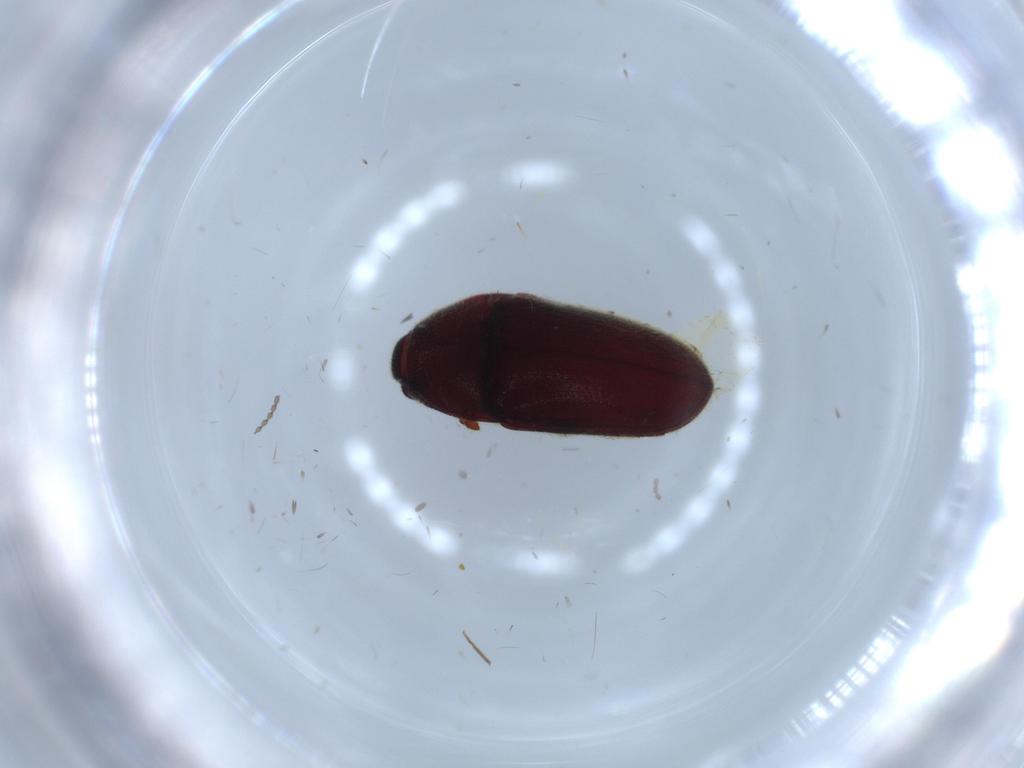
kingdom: Animalia
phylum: Arthropoda
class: Insecta
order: Coleoptera
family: Throscidae
